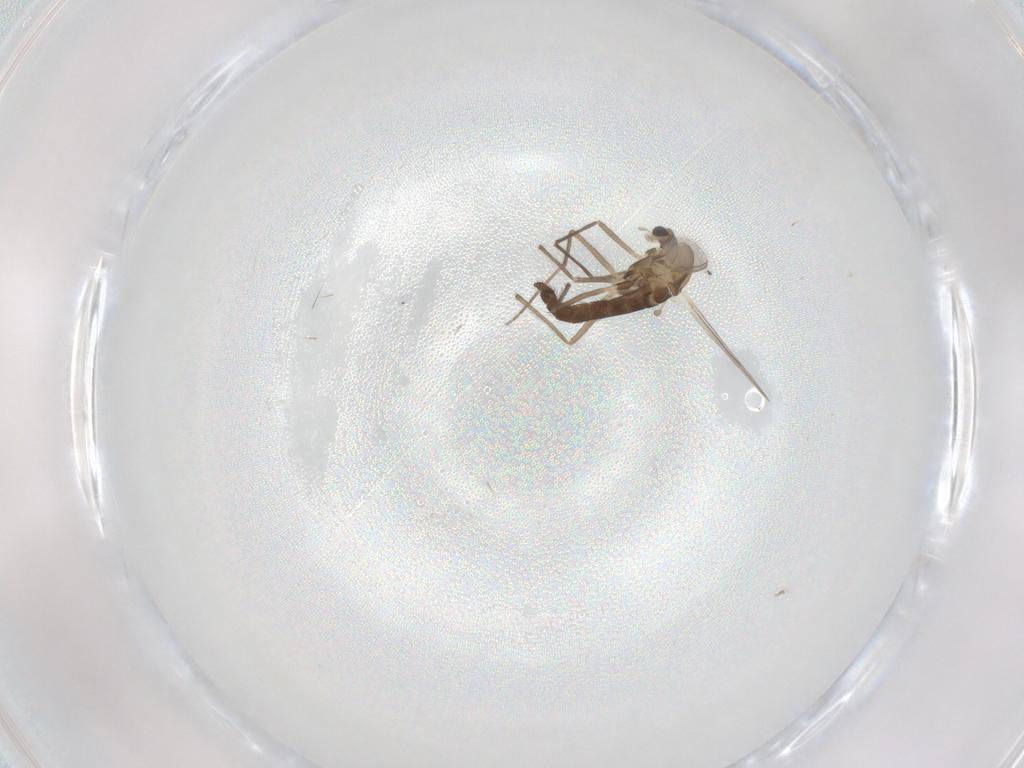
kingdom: Animalia
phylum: Arthropoda
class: Insecta
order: Diptera
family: Chironomidae
